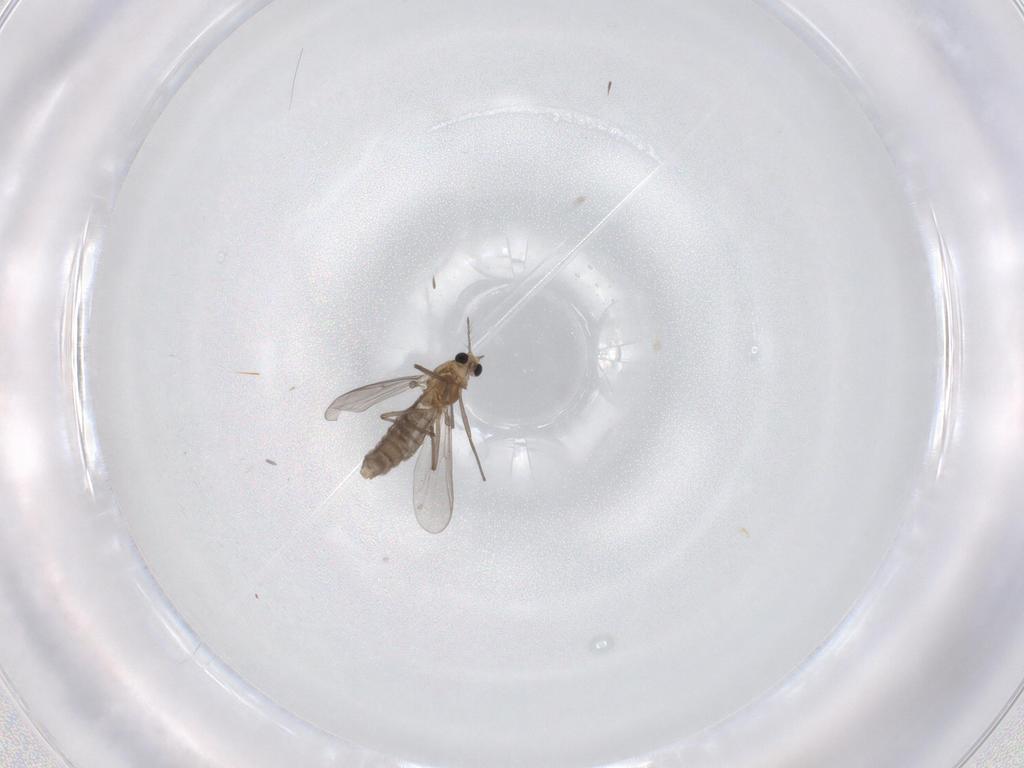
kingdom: Animalia
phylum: Arthropoda
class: Insecta
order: Diptera
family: Chironomidae
